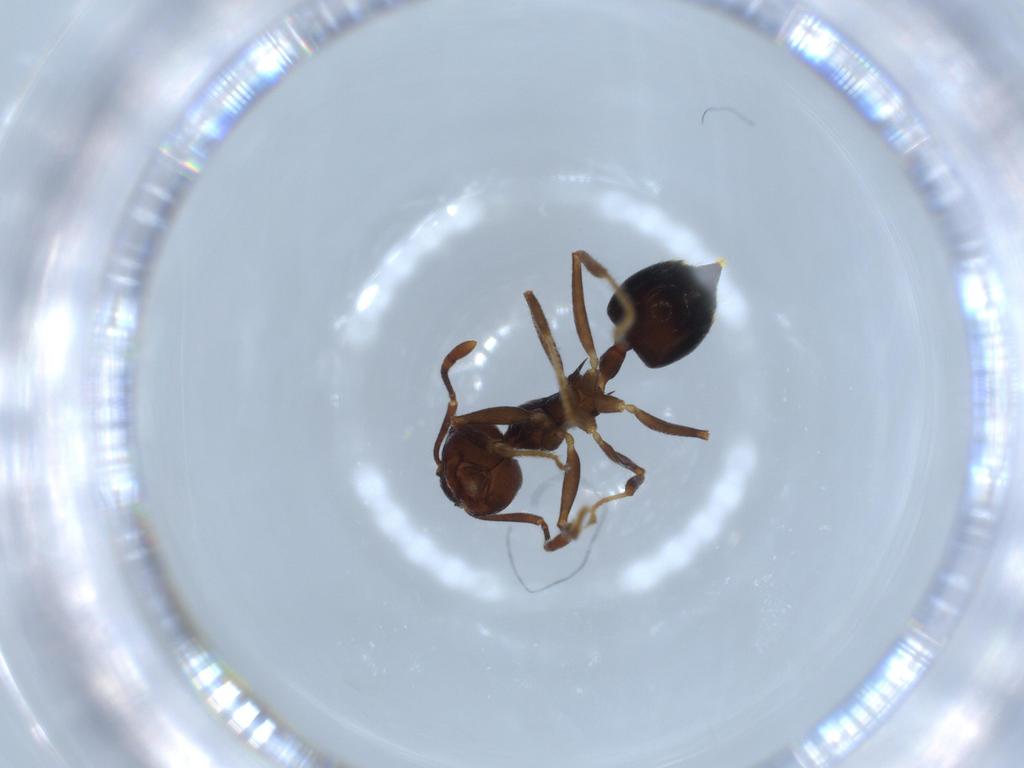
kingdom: Animalia
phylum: Arthropoda
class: Insecta
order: Hymenoptera
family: Formicidae
